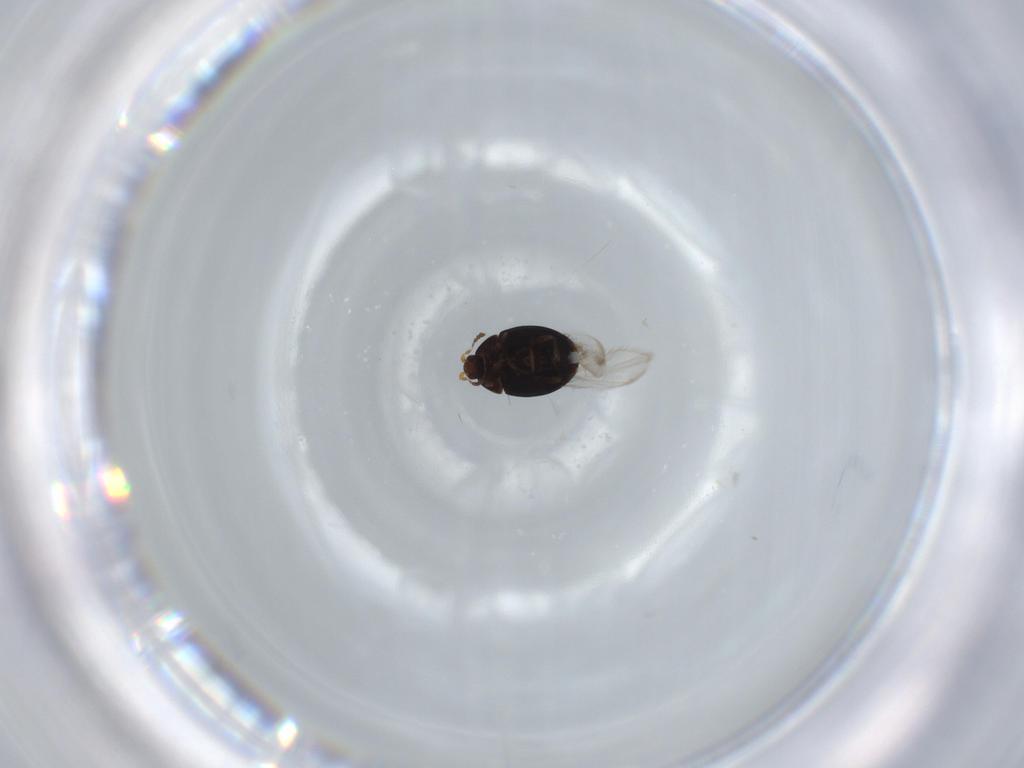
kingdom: Animalia
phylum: Arthropoda
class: Insecta
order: Coleoptera
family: Corylophidae
